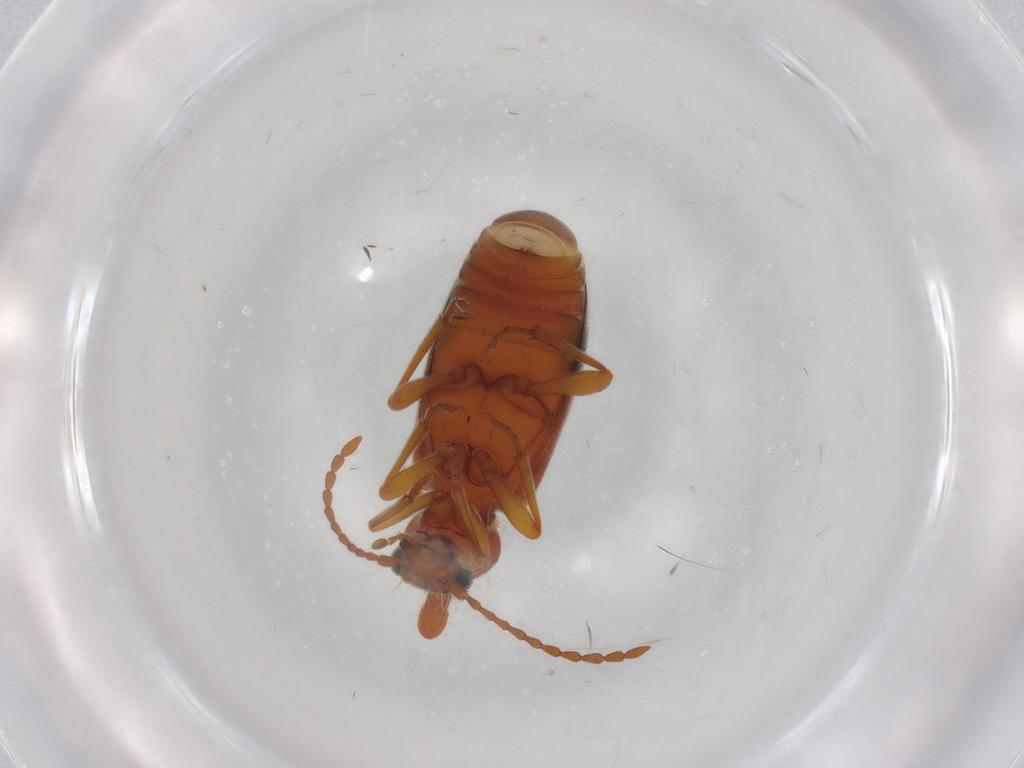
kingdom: Animalia
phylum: Arthropoda
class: Insecta
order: Coleoptera
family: Anthicidae
